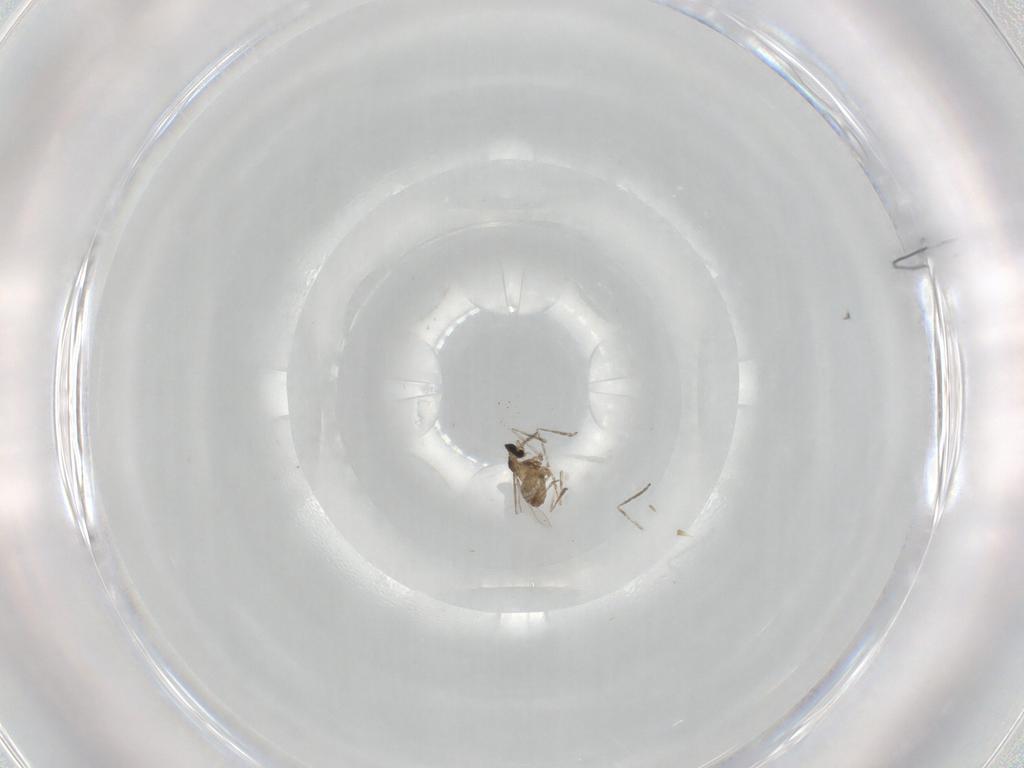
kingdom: Animalia
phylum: Arthropoda
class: Insecta
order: Diptera
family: Cecidomyiidae
